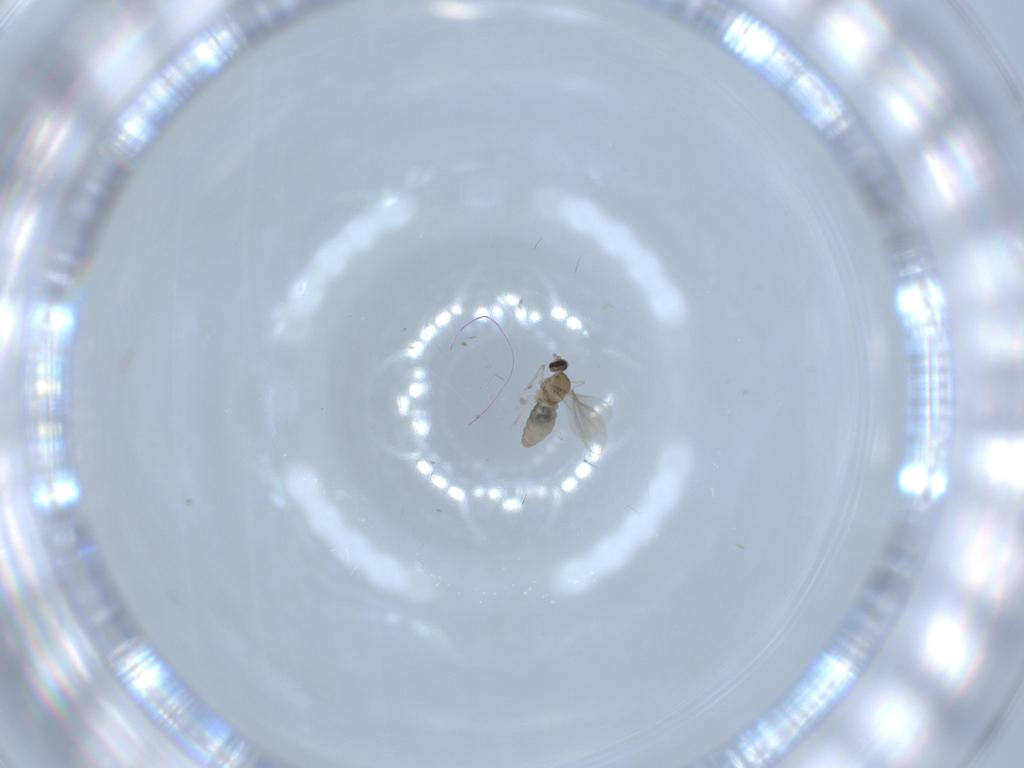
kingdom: Animalia
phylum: Arthropoda
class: Insecta
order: Diptera
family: Cecidomyiidae
